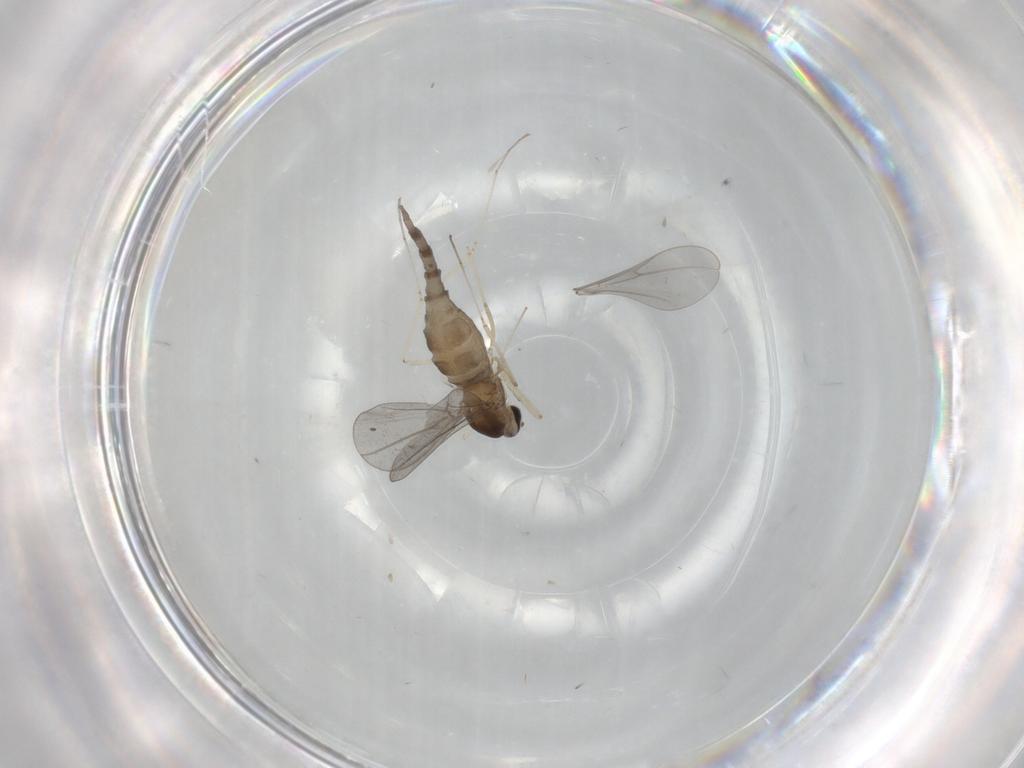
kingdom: Animalia
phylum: Arthropoda
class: Insecta
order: Diptera
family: Cecidomyiidae
